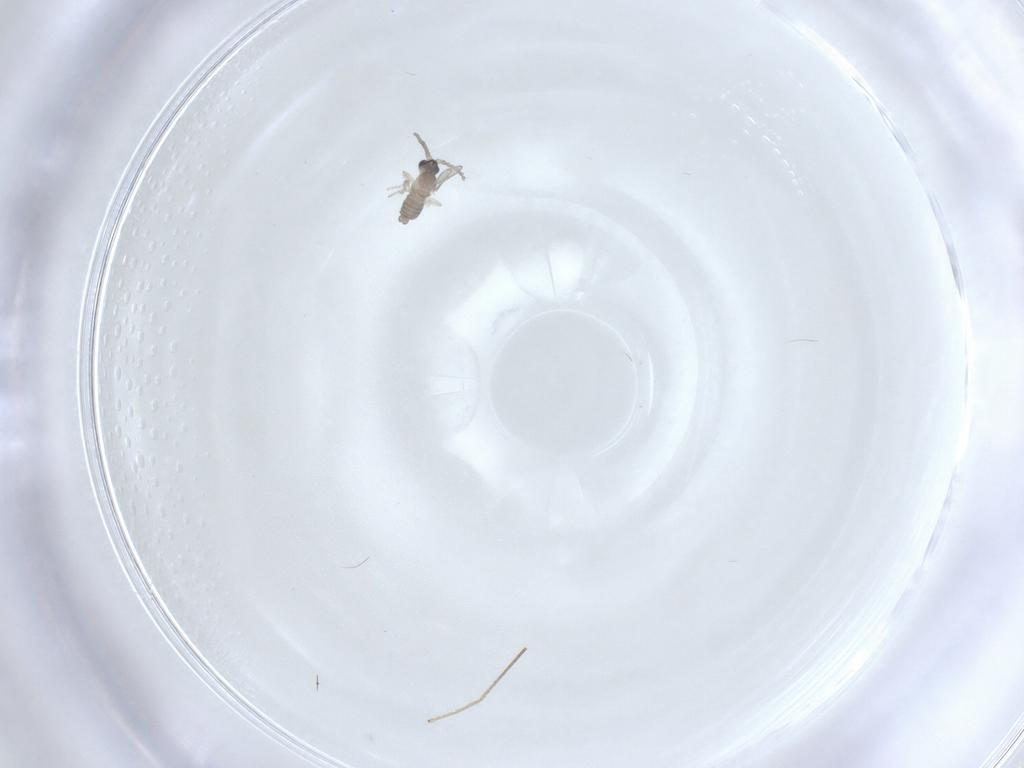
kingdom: Animalia
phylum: Arthropoda
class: Insecta
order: Diptera
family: Cecidomyiidae
